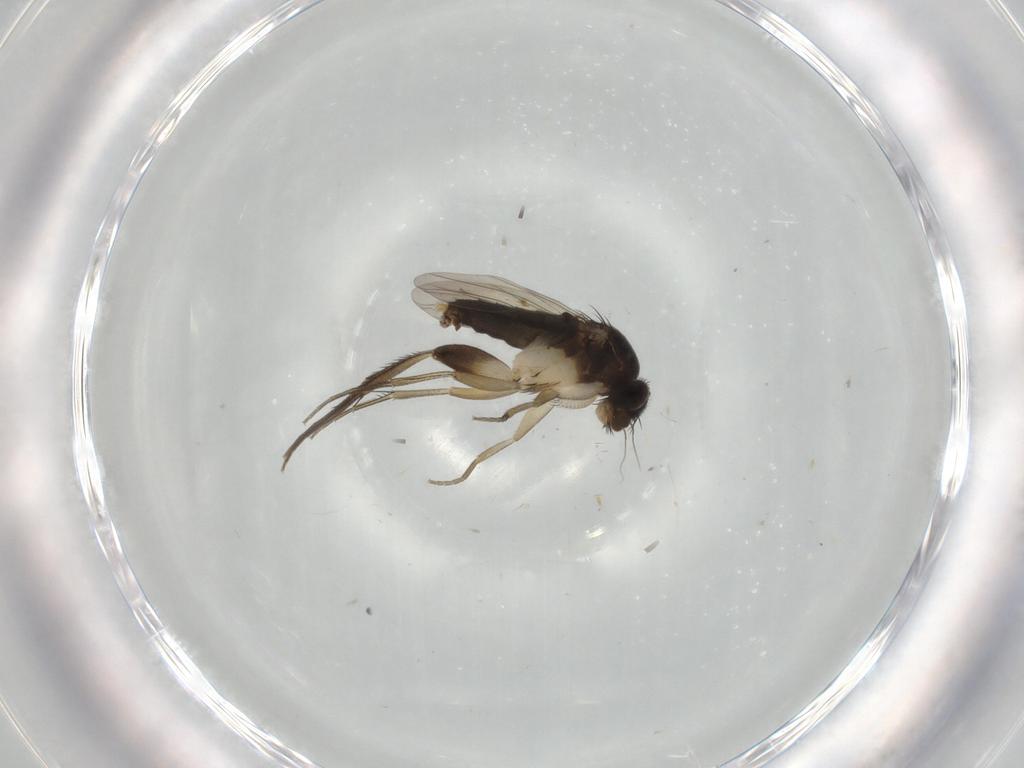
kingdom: Animalia
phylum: Arthropoda
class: Insecta
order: Diptera
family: Phoridae
